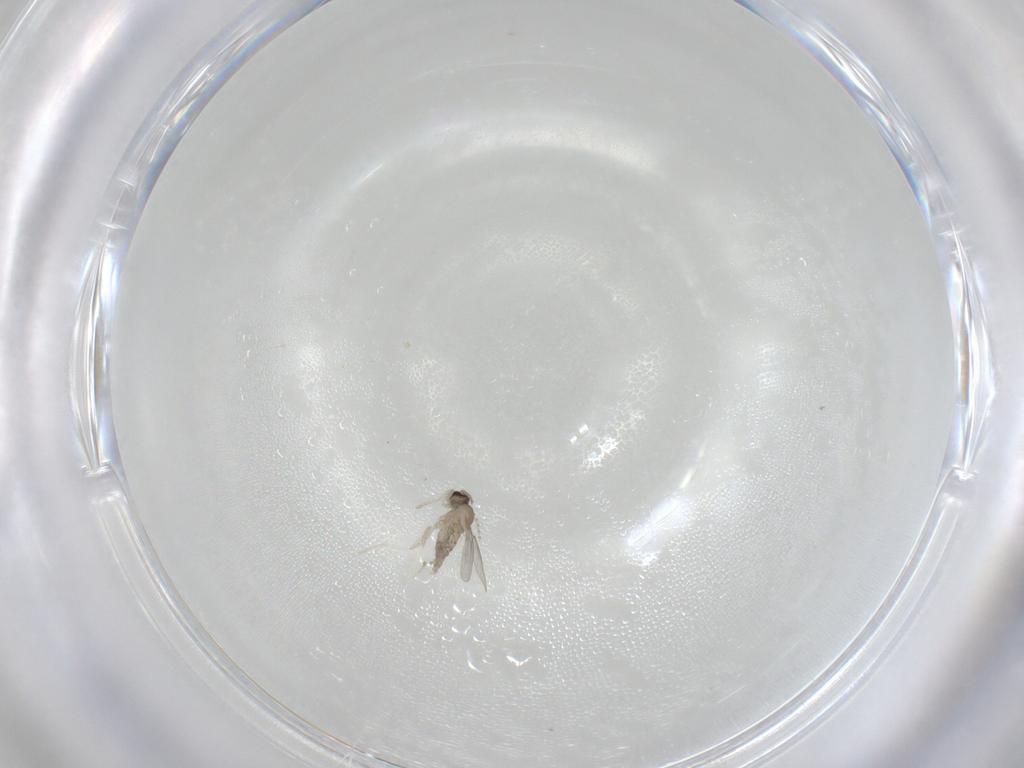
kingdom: Animalia
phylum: Arthropoda
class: Insecta
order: Diptera
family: Cecidomyiidae
